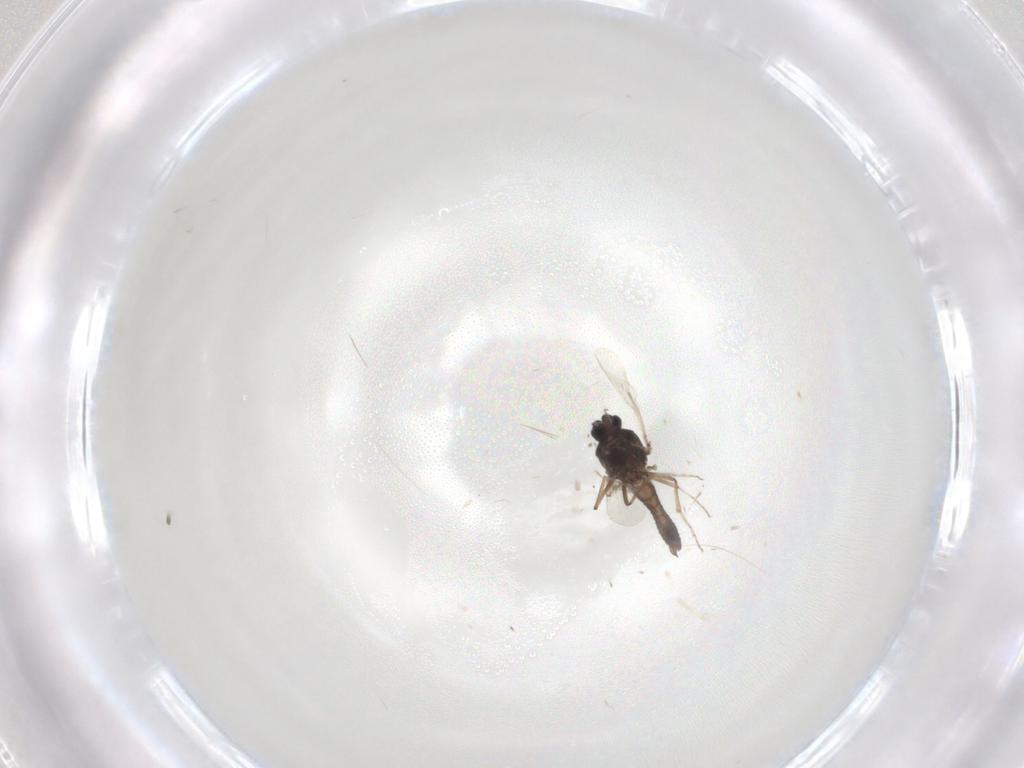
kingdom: Animalia
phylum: Arthropoda
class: Insecta
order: Diptera
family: Ceratopogonidae
